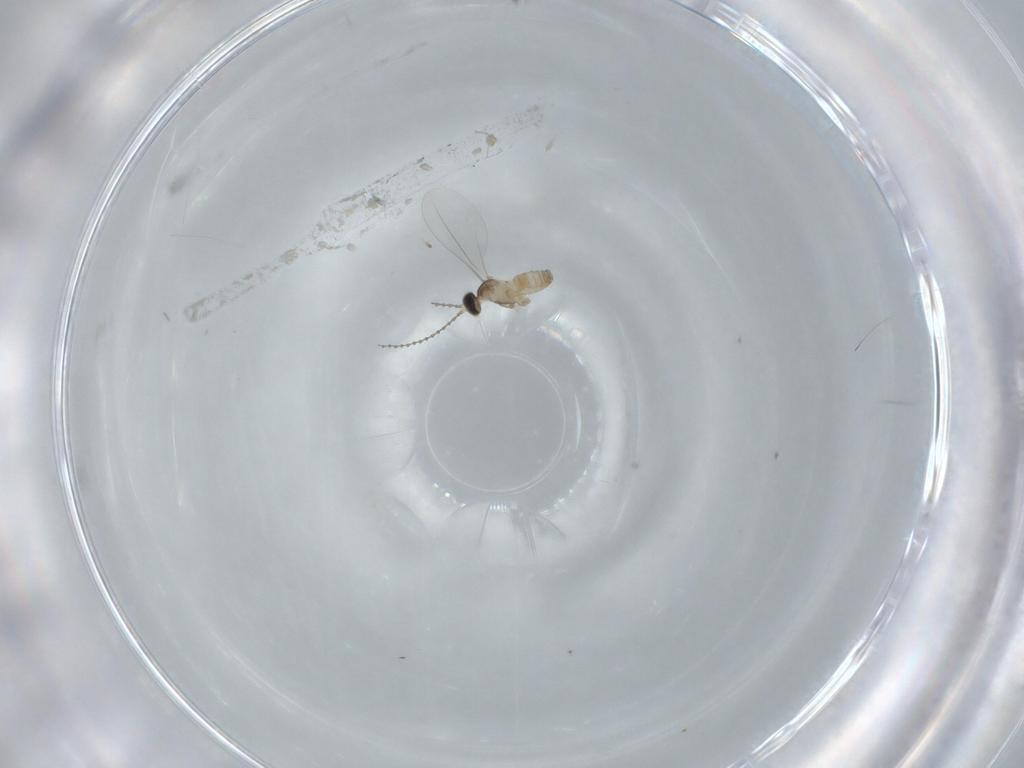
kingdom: Animalia
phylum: Arthropoda
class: Insecta
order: Diptera
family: Cecidomyiidae
